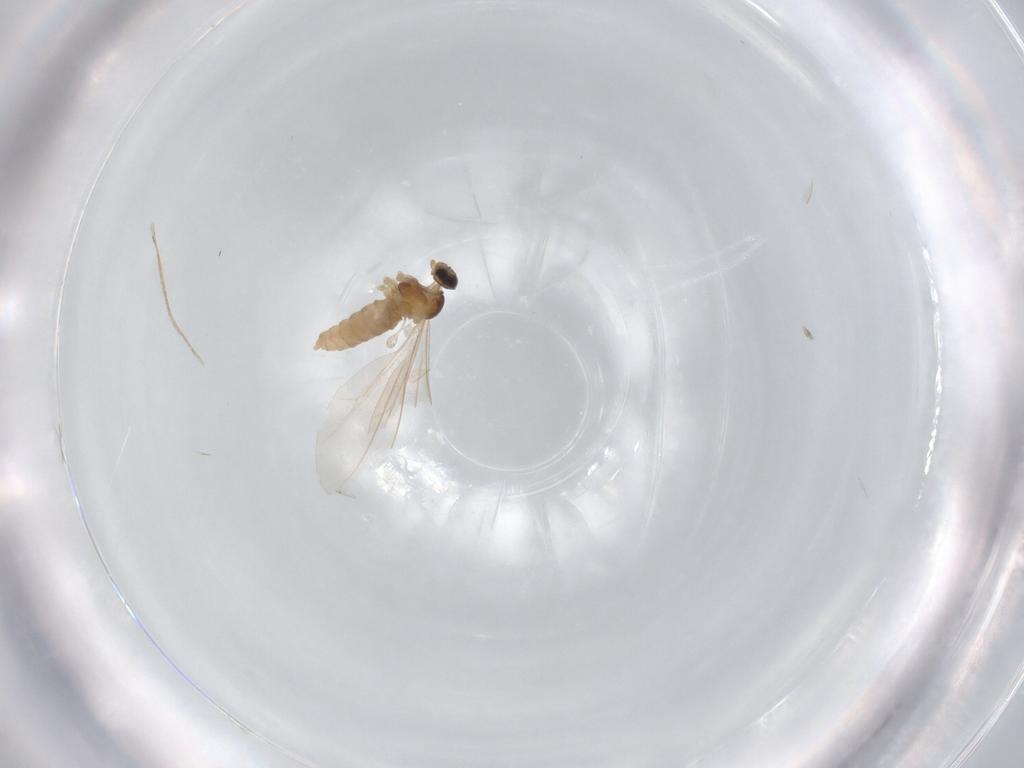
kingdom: Animalia
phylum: Arthropoda
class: Insecta
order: Diptera
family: Cecidomyiidae
